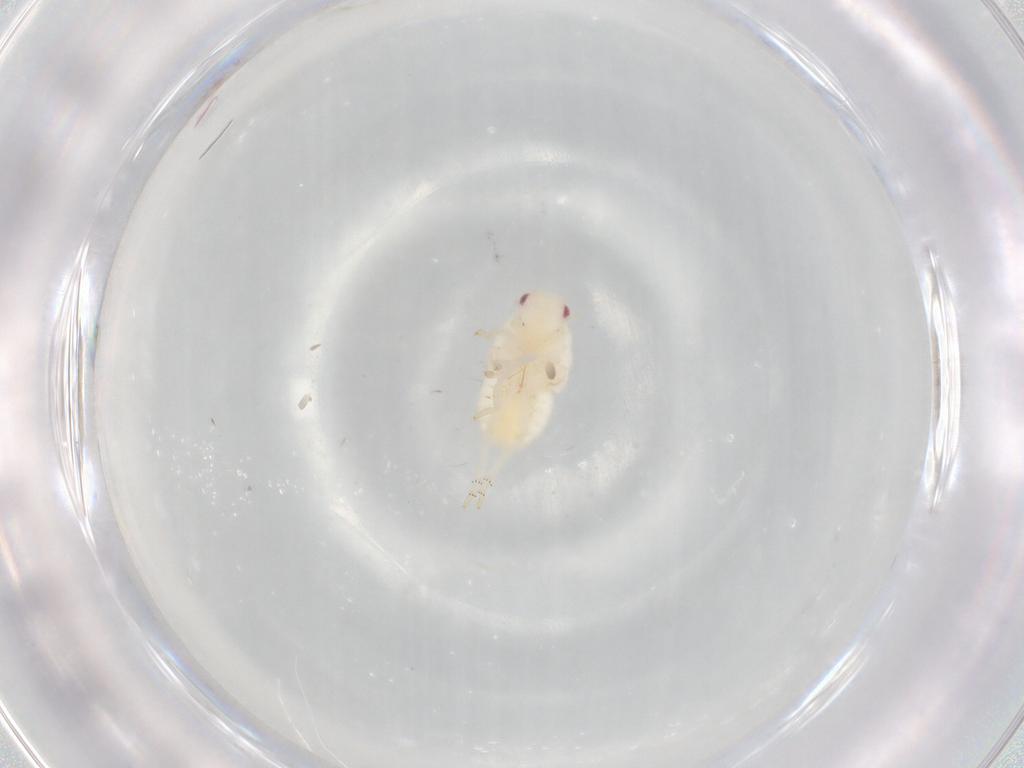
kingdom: Animalia
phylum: Arthropoda
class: Insecta
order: Hemiptera
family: Flatidae
